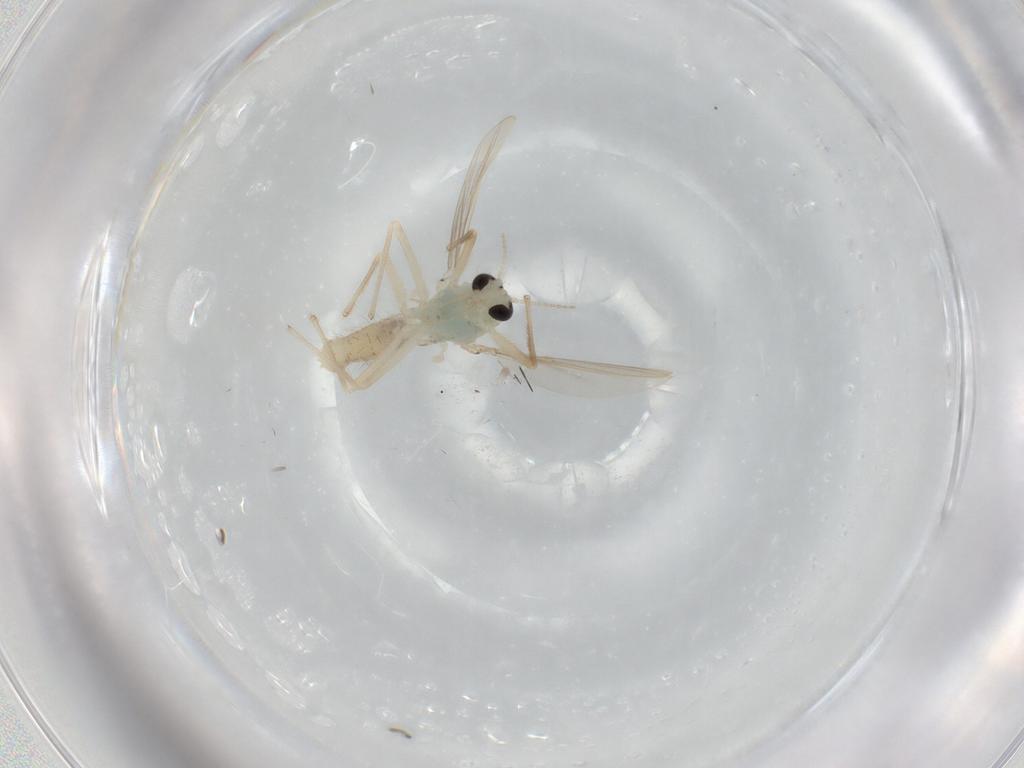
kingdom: Animalia
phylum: Arthropoda
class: Insecta
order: Diptera
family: Chironomidae
